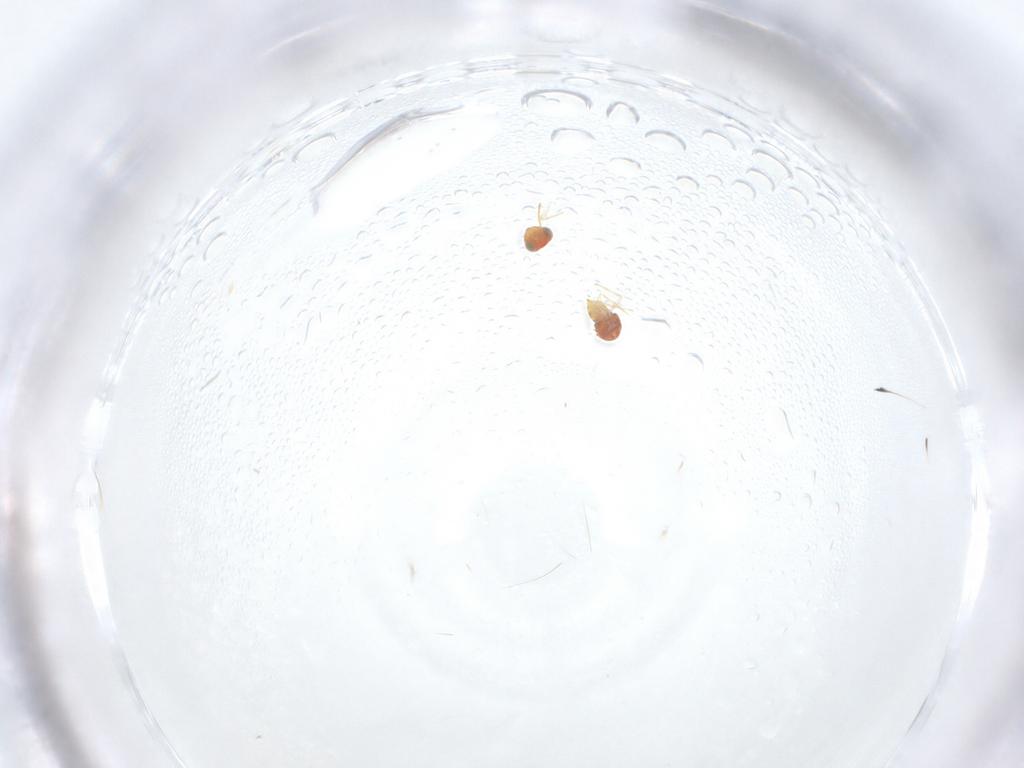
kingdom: Animalia
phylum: Arthropoda
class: Insecta
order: Hymenoptera
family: Aphelinidae
